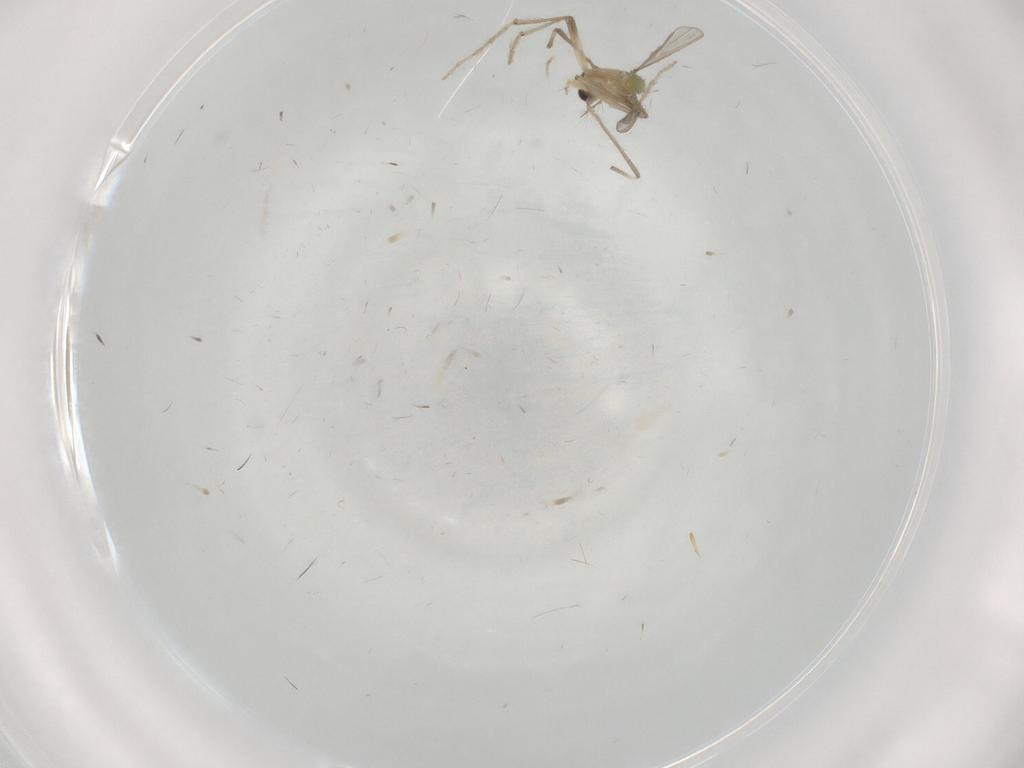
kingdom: Animalia
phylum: Arthropoda
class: Insecta
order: Diptera
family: Chironomidae
